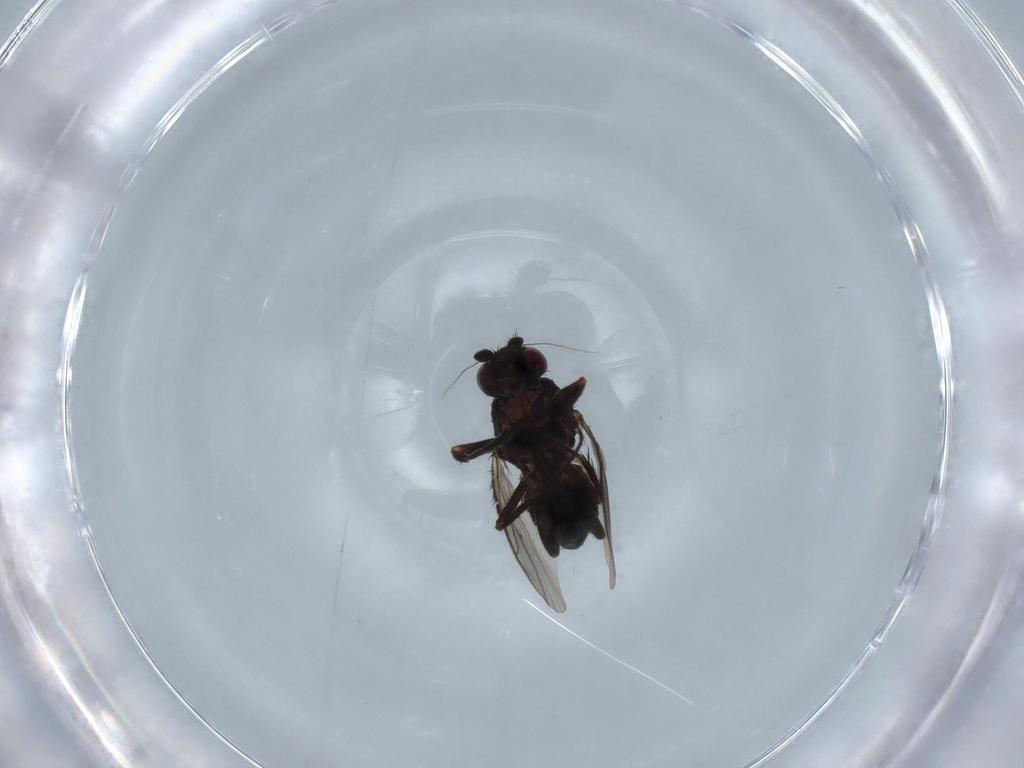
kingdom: Animalia
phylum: Arthropoda
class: Insecta
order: Diptera
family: Sphaeroceridae
